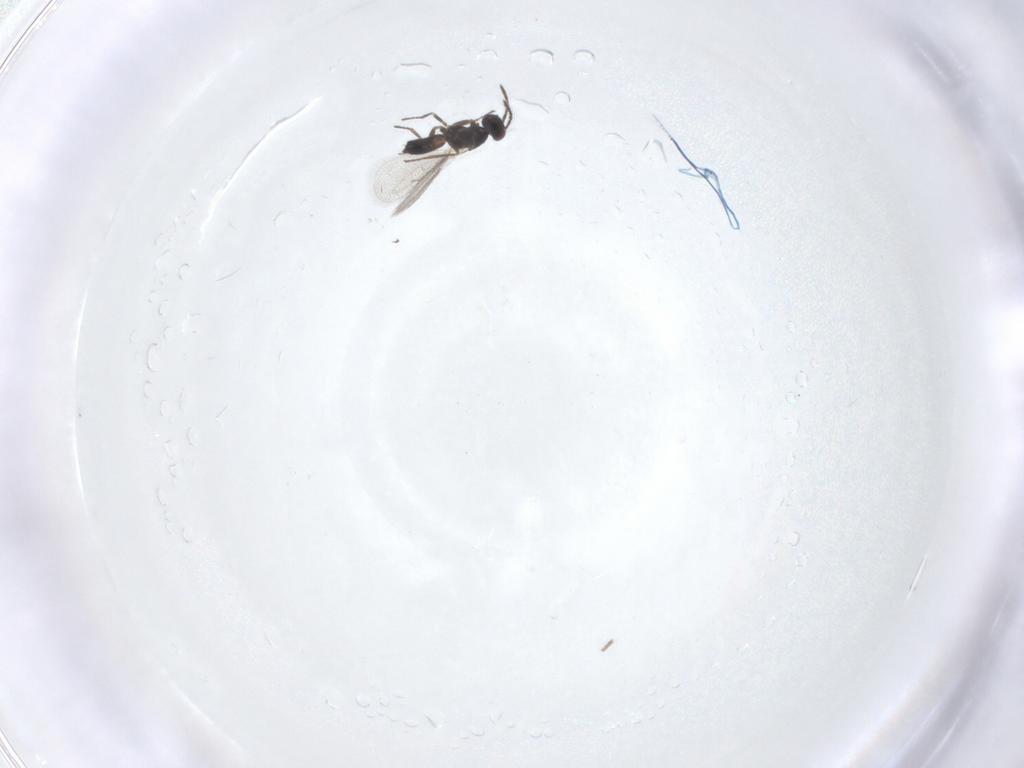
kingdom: Animalia
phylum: Arthropoda
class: Insecta
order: Hymenoptera
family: Eulophidae
